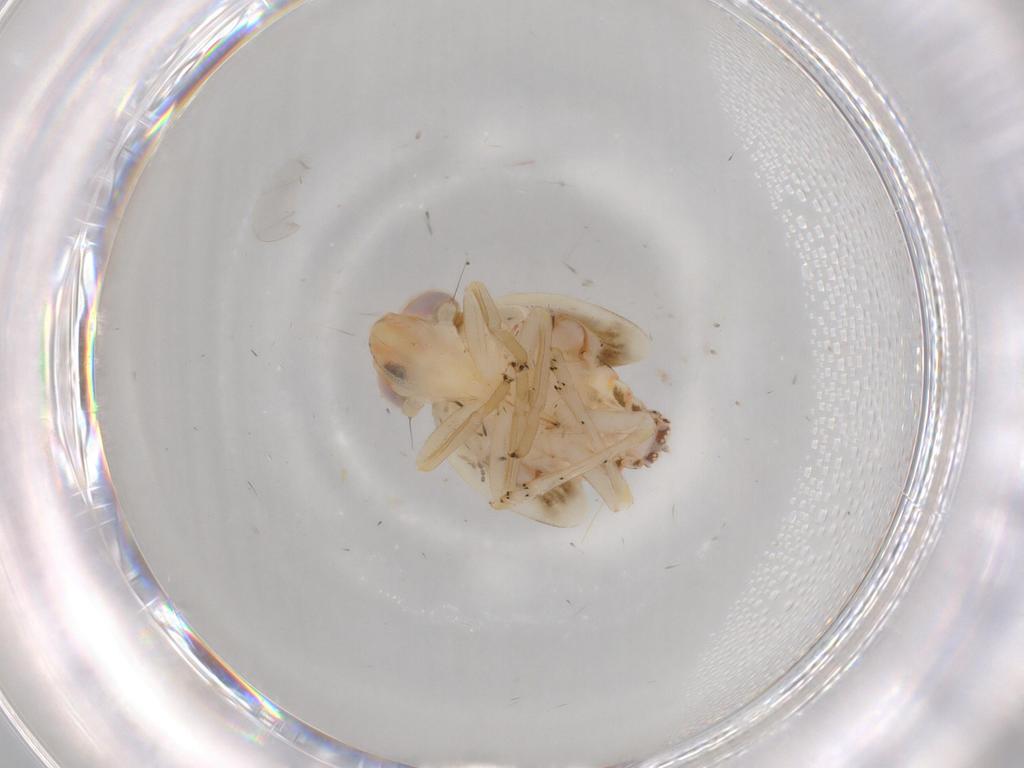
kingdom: Animalia
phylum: Arthropoda
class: Insecta
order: Hemiptera
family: Cicadellidae
